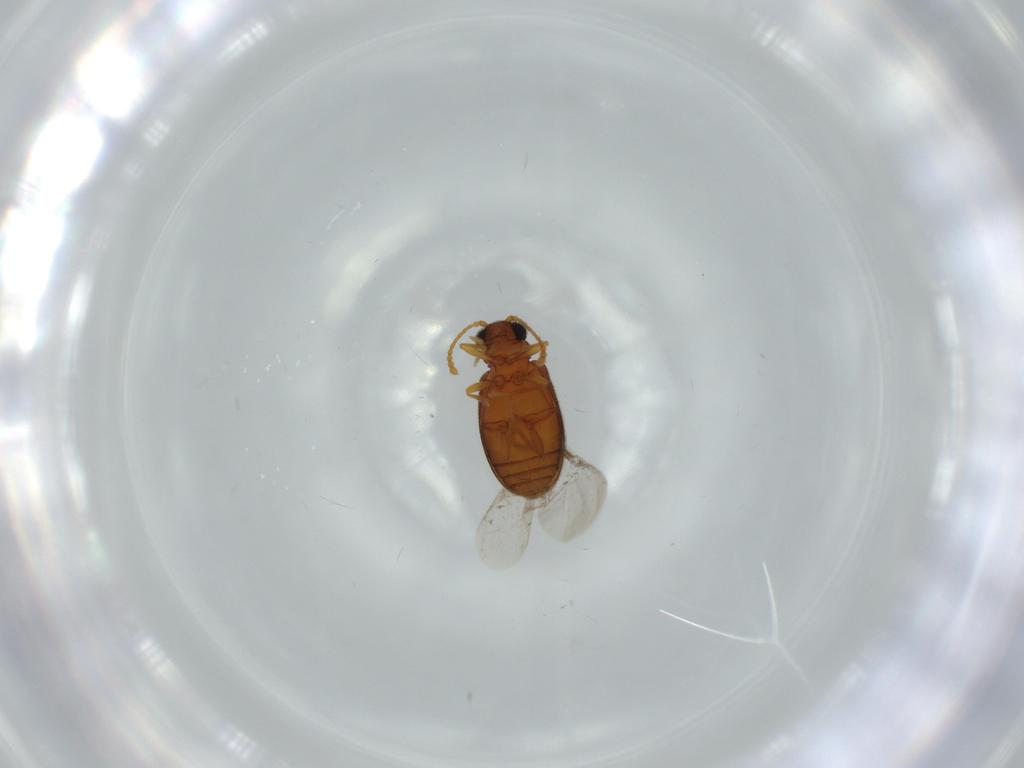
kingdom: Animalia
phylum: Arthropoda
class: Insecta
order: Coleoptera
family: Aderidae
